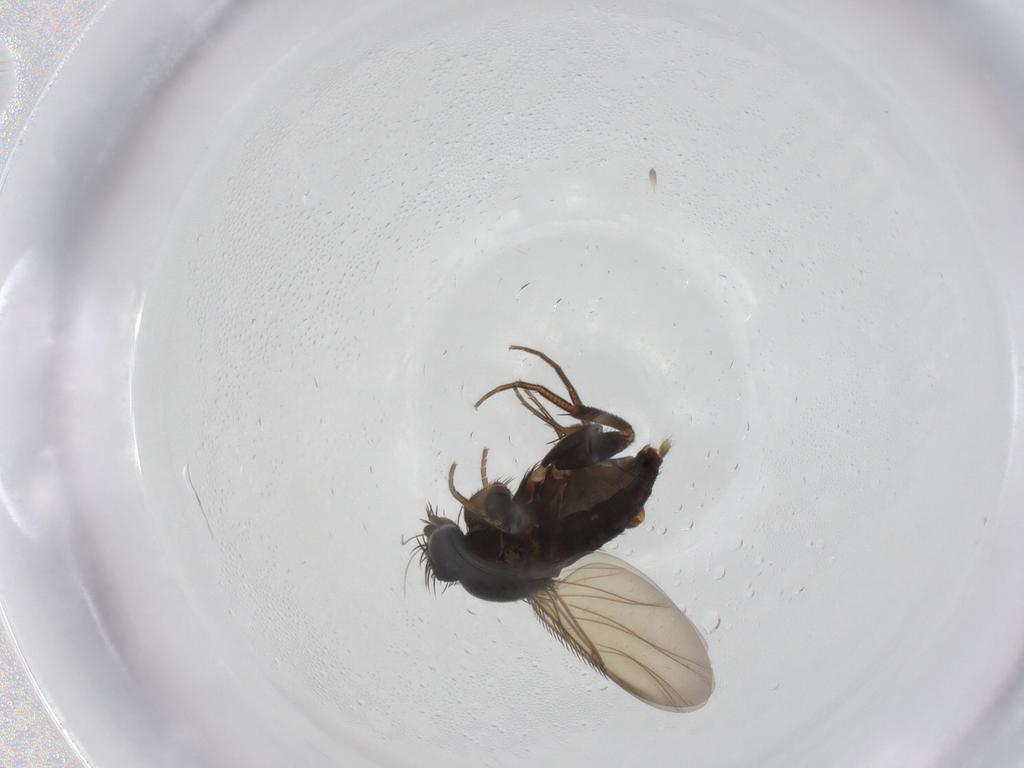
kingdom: Animalia
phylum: Arthropoda
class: Insecta
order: Diptera
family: Phoridae
